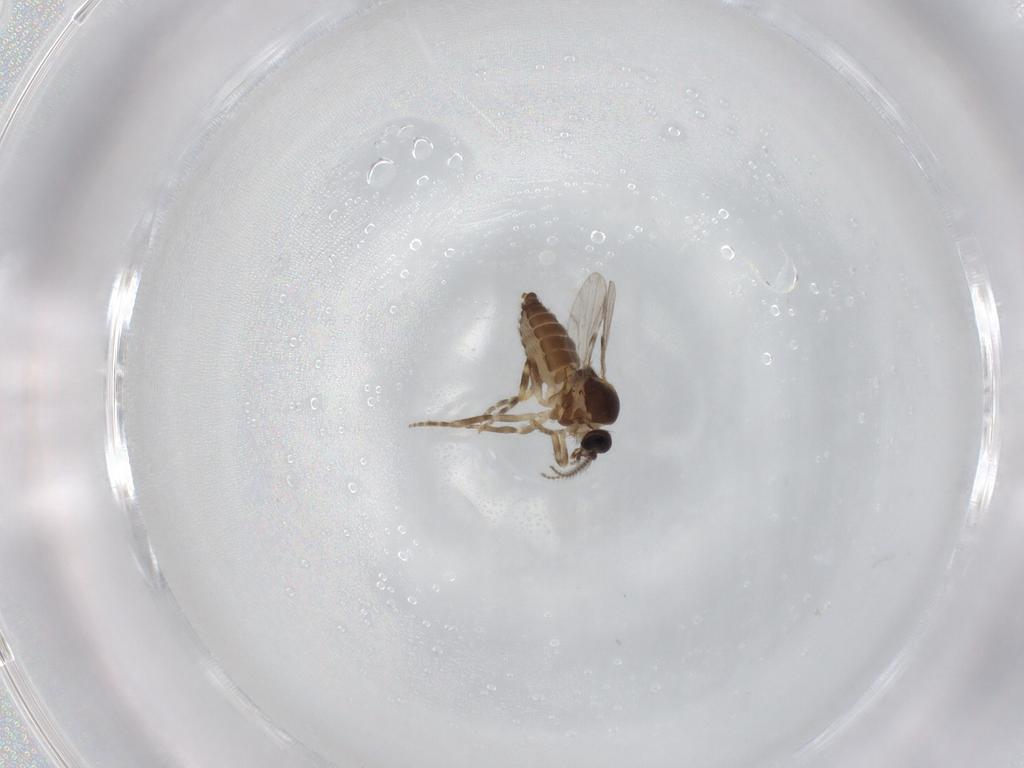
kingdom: Animalia
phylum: Arthropoda
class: Insecta
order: Diptera
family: Ceratopogonidae
